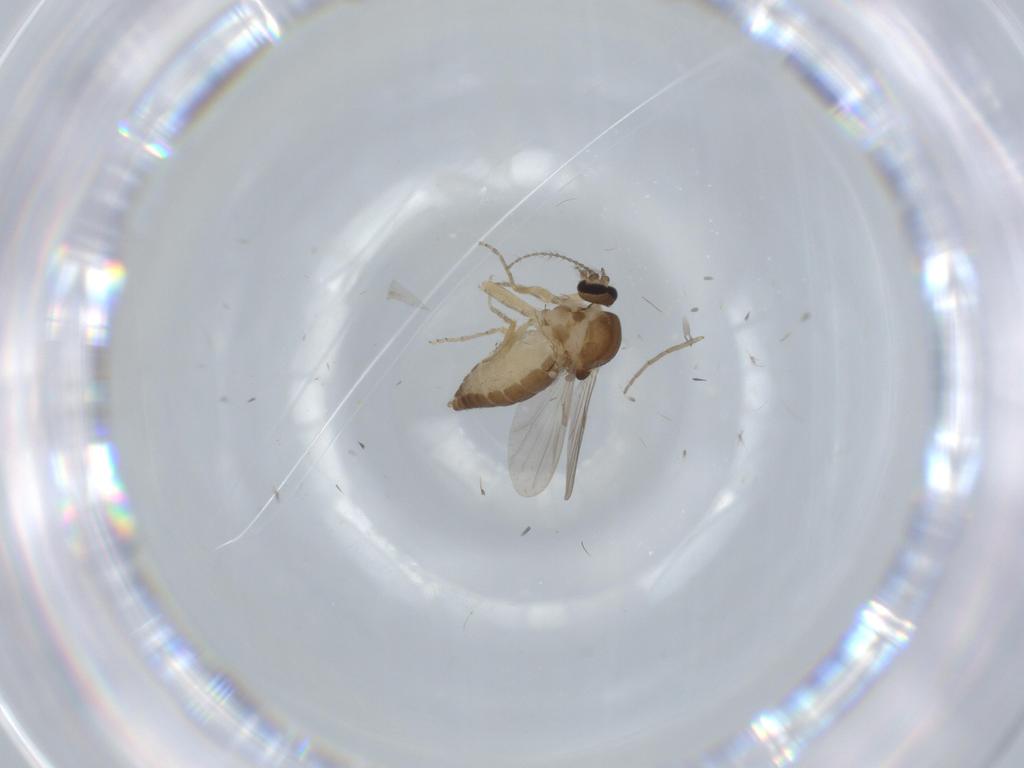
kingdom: Animalia
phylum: Arthropoda
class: Insecta
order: Diptera
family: Ceratopogonidae
